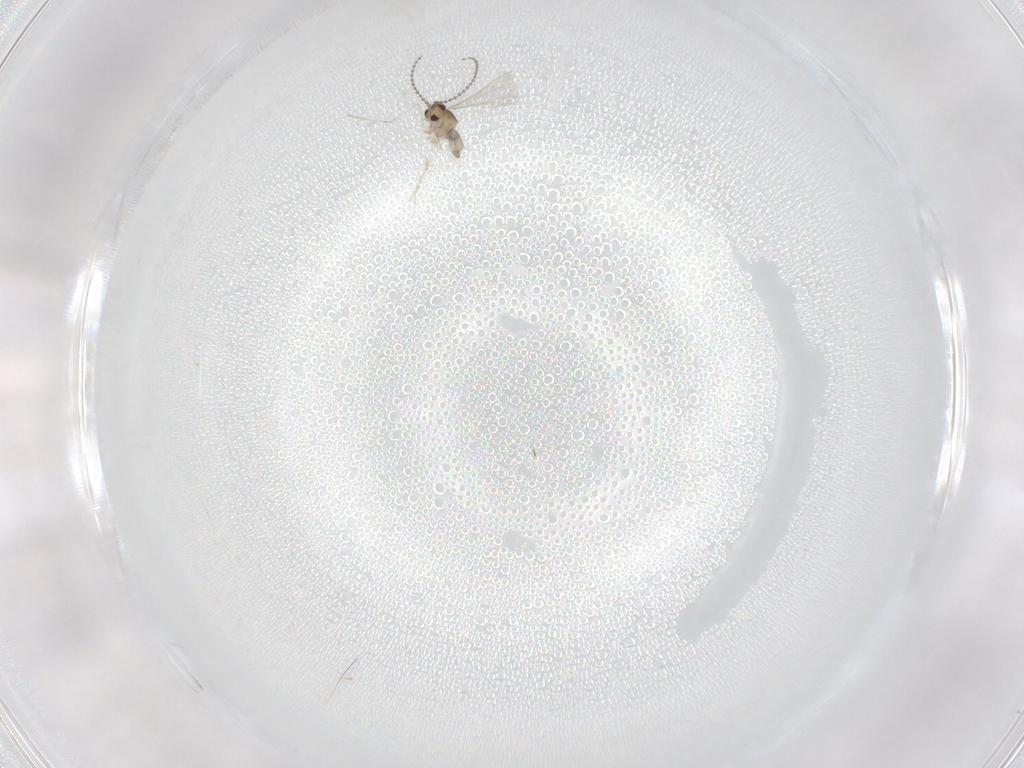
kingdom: Animalia
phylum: Arthropoda
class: Insecta
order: Diptera
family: Cecidomyiidae
